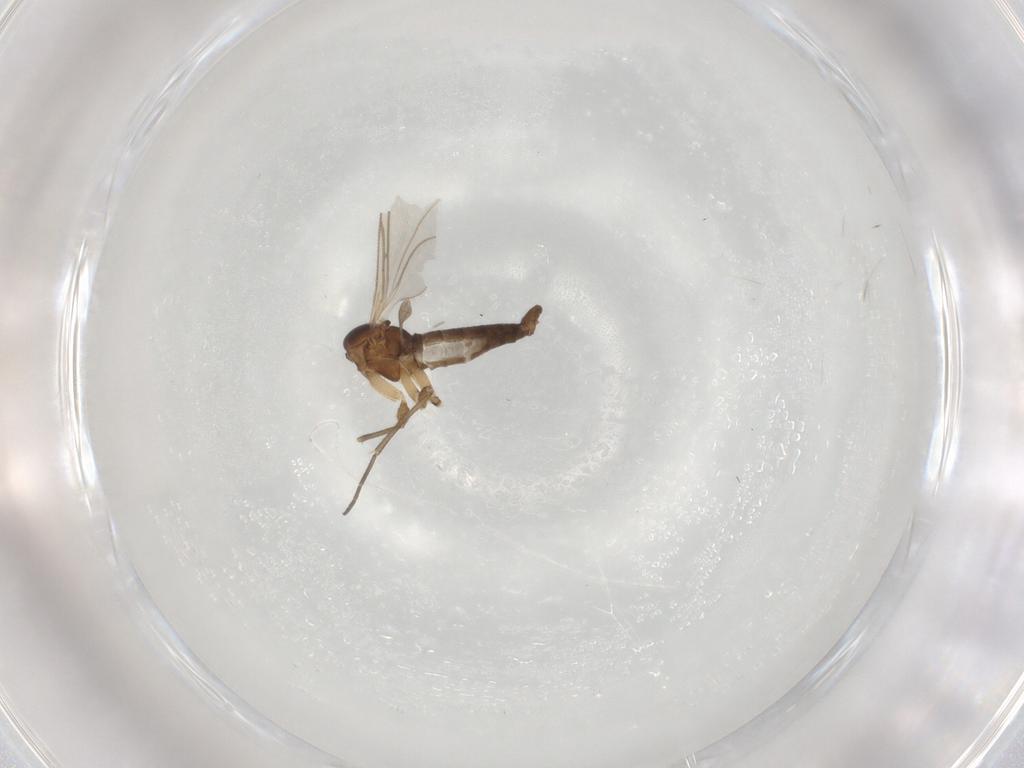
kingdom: Animalia
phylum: Arthropoda
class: Insecta
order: Diptera
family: Sciaridae
